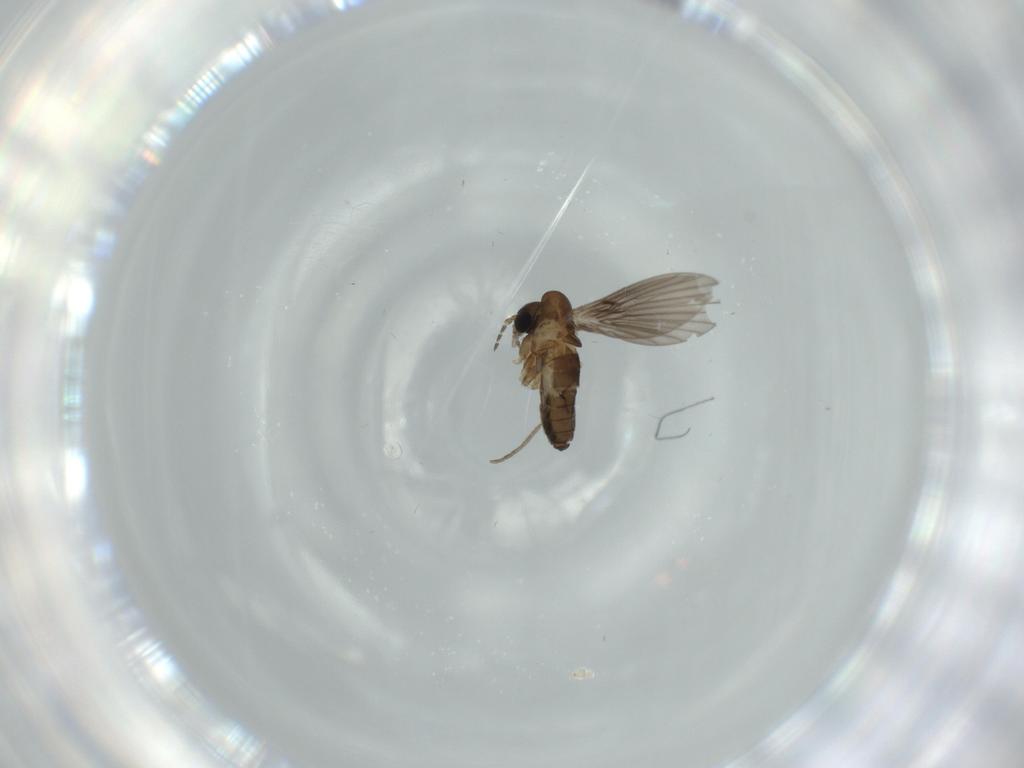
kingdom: Animalia
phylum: Arthropoda
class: Insecta
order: Diptera
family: Psychodidae
